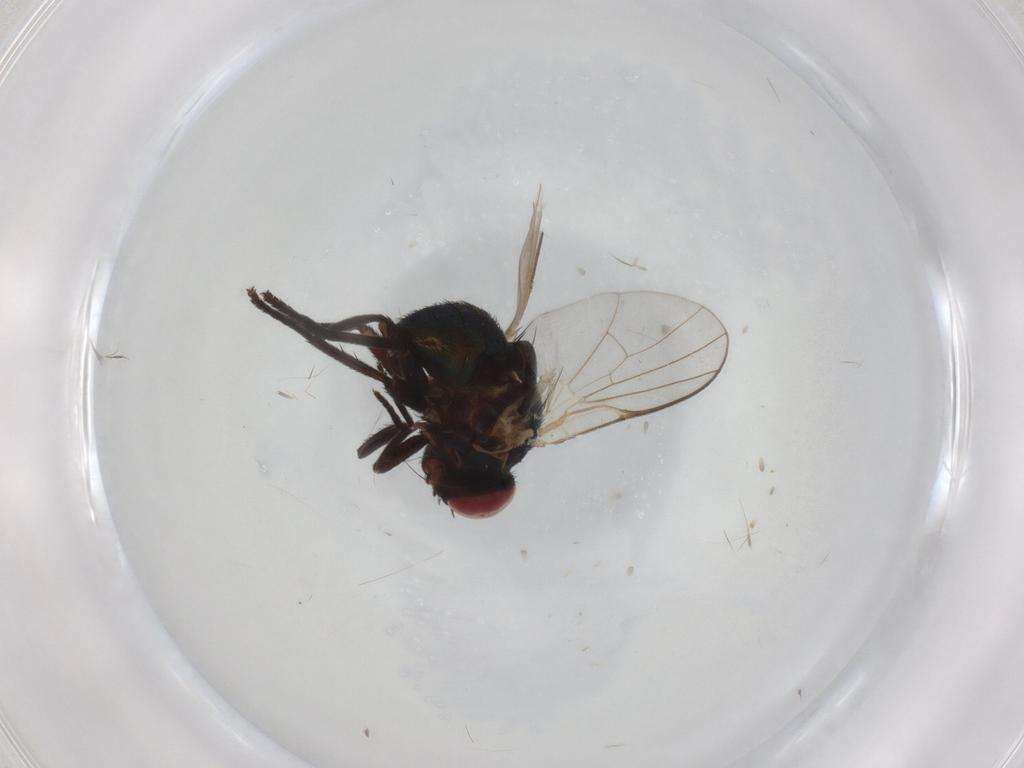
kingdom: Animalia
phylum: Arthropoda
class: Insecta
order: Diptera
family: Agromyzidae
